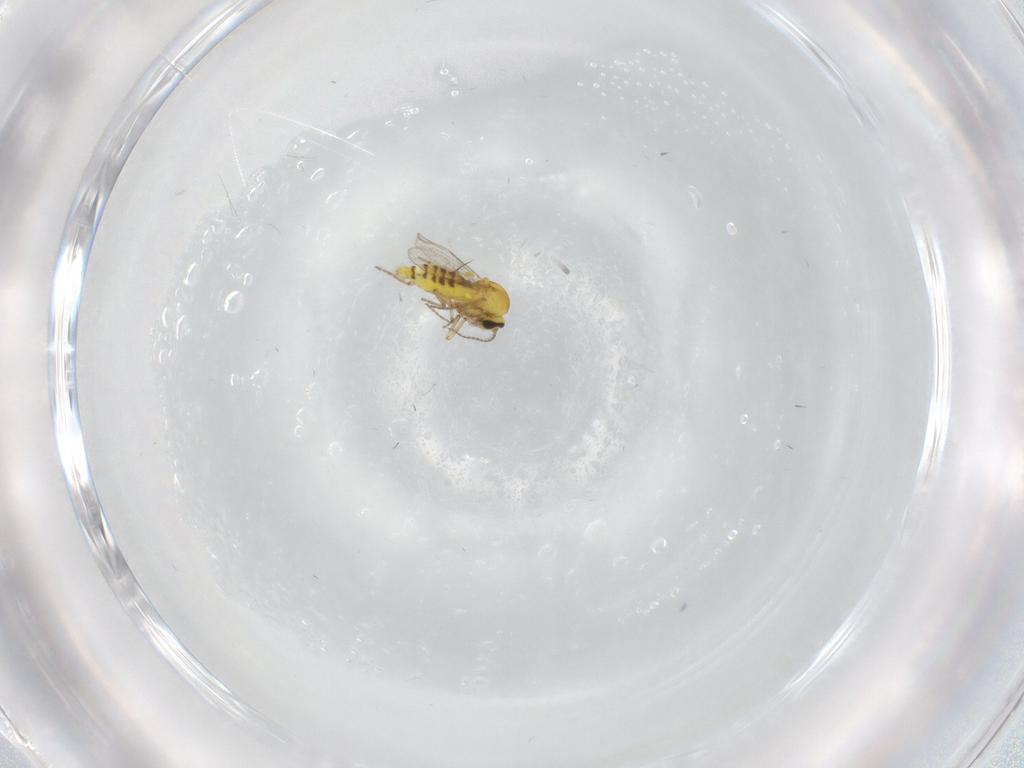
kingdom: Animalia
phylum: Arthropoda
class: Insecta
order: Diptera
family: Ceratopogonidae
